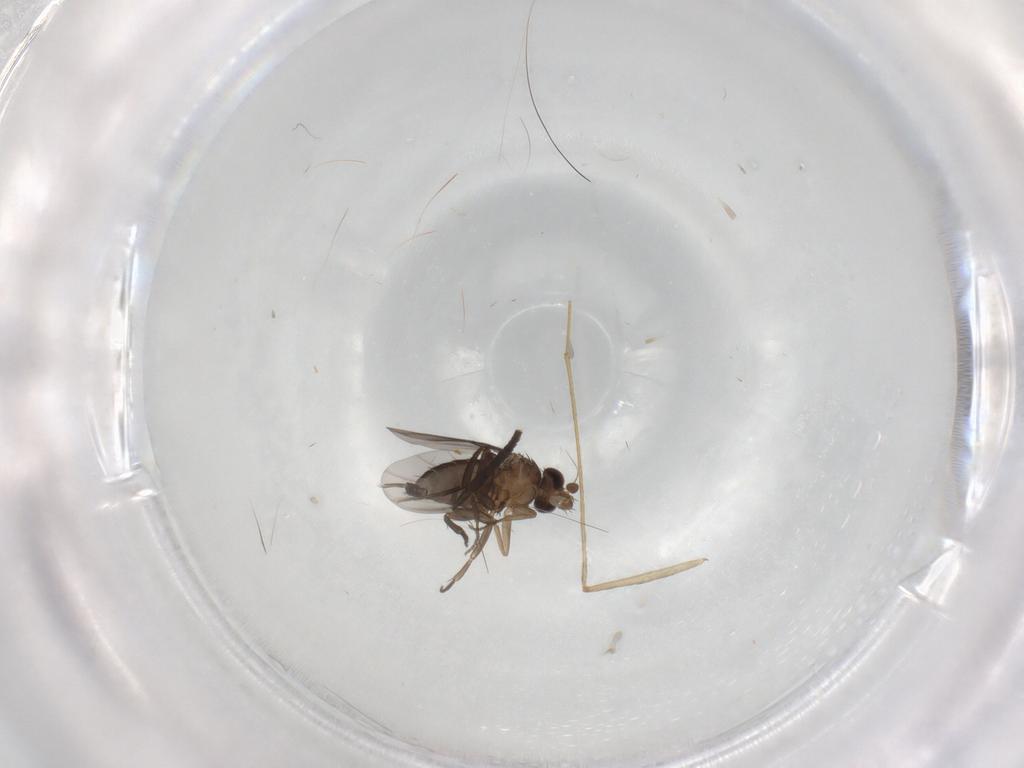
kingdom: Animalia
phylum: Arthropoda
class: Insecta
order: Diptera
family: Phoridae
